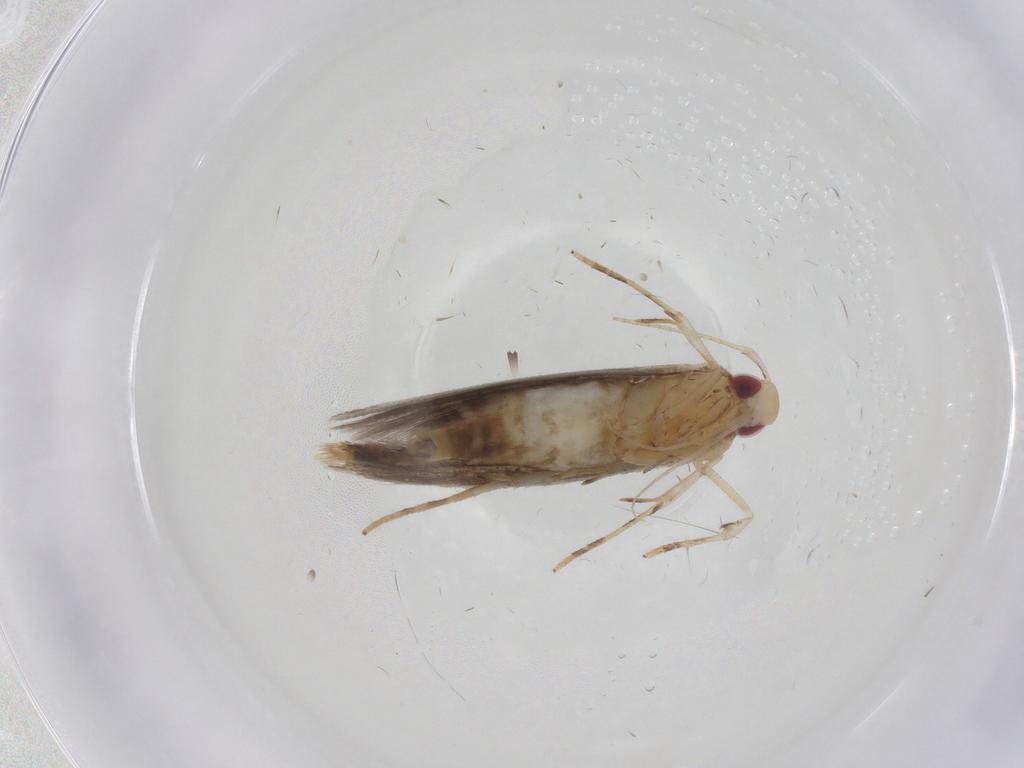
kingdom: Animalia
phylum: Arthropoda
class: Insecta
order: Lepidoptera
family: Cosmopterigidae
